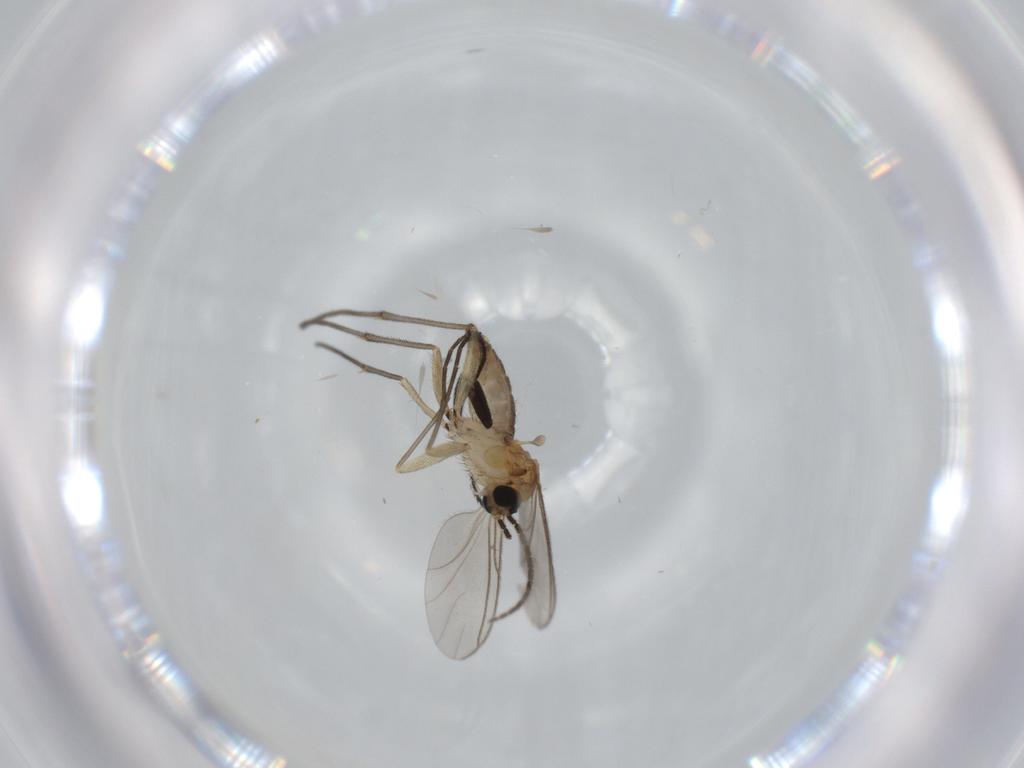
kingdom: Animalia
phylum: Arthropoda
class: Insecta
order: Diptera
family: Sciaridae
